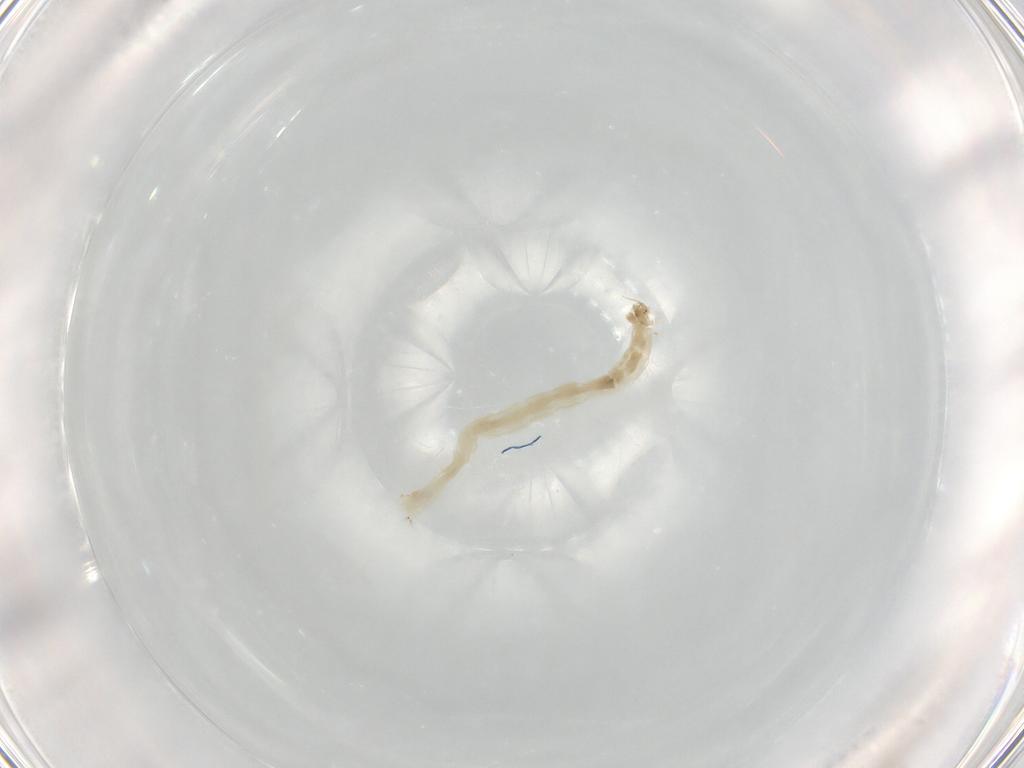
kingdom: Animalia
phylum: Arthropoda
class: Insecta
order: Diptera
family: Chironomidae
